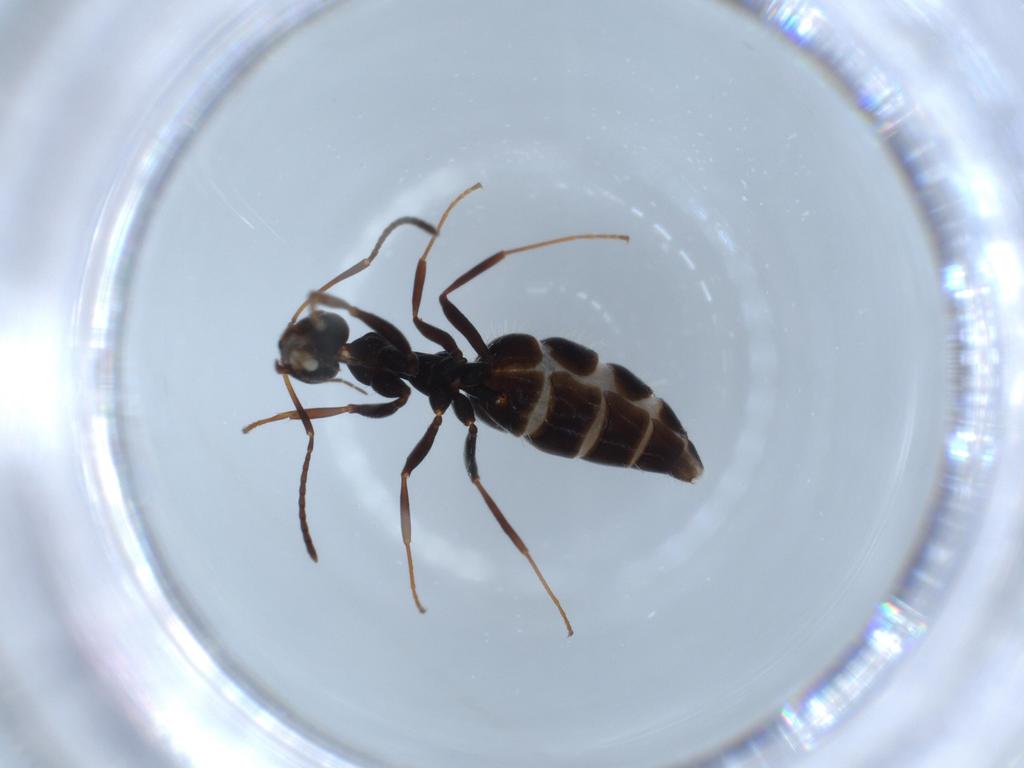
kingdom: Animalia
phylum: Arthropoda
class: Insecta
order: Hymenoptera
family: Formicidae
